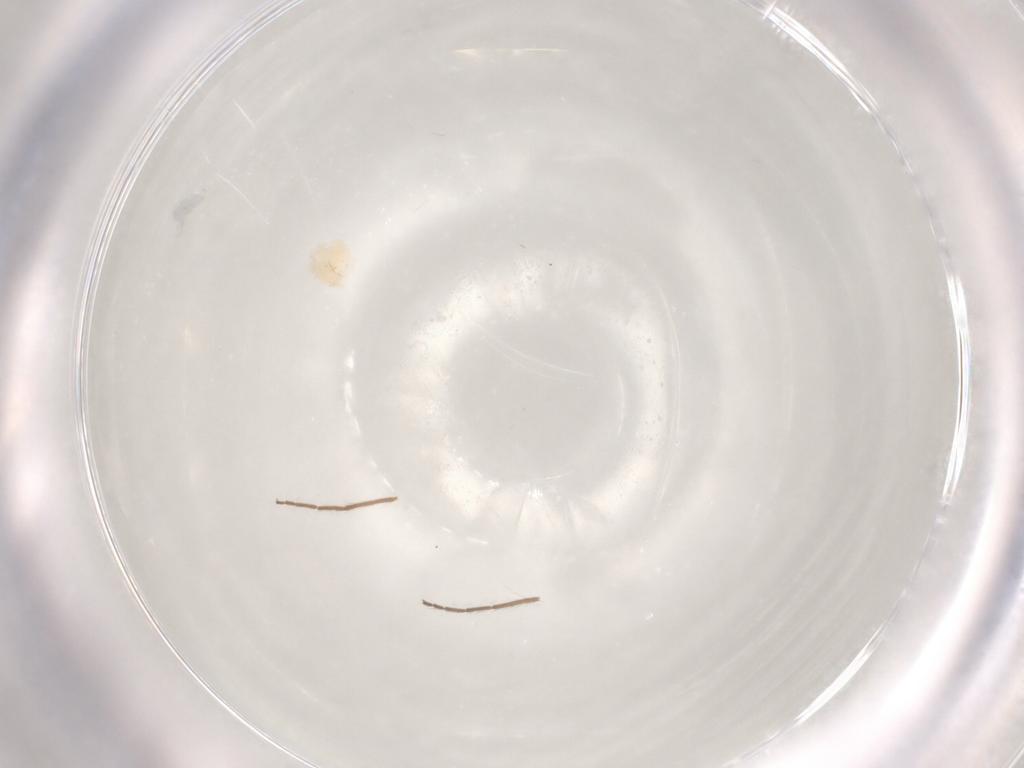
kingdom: Animalia
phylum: Arthropoda
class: Arachnida
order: Trombidiformes
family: Anystidae
